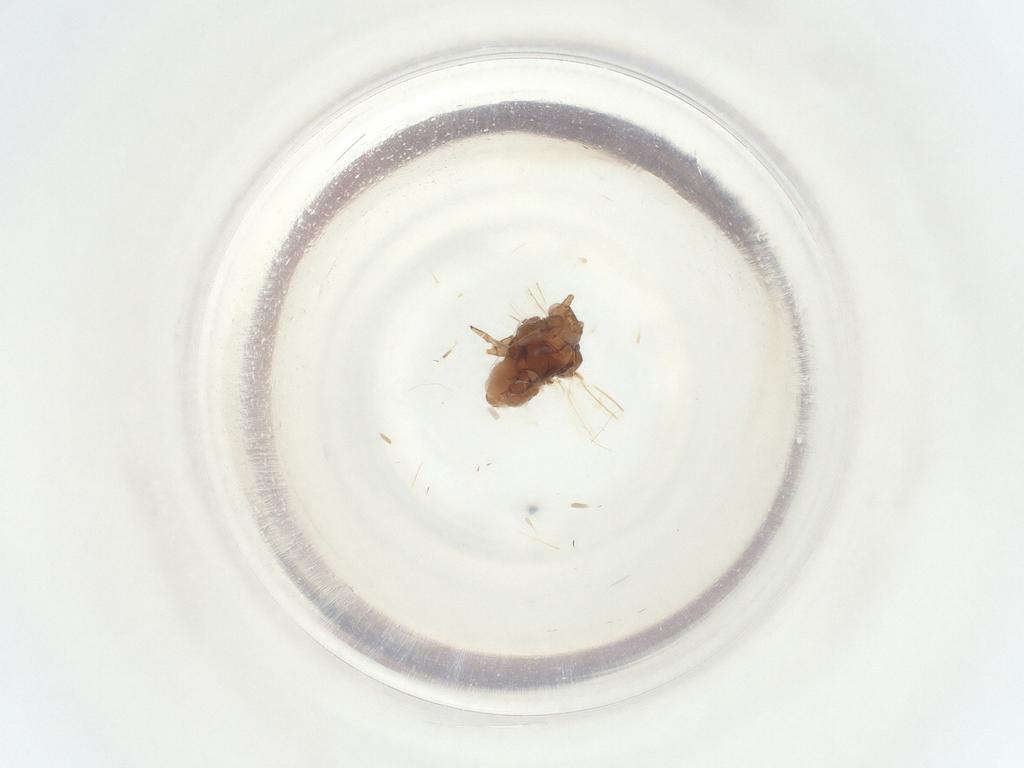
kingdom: Animalia
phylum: Arthropoda
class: Insecta
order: Hemiptera
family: Aphididae
